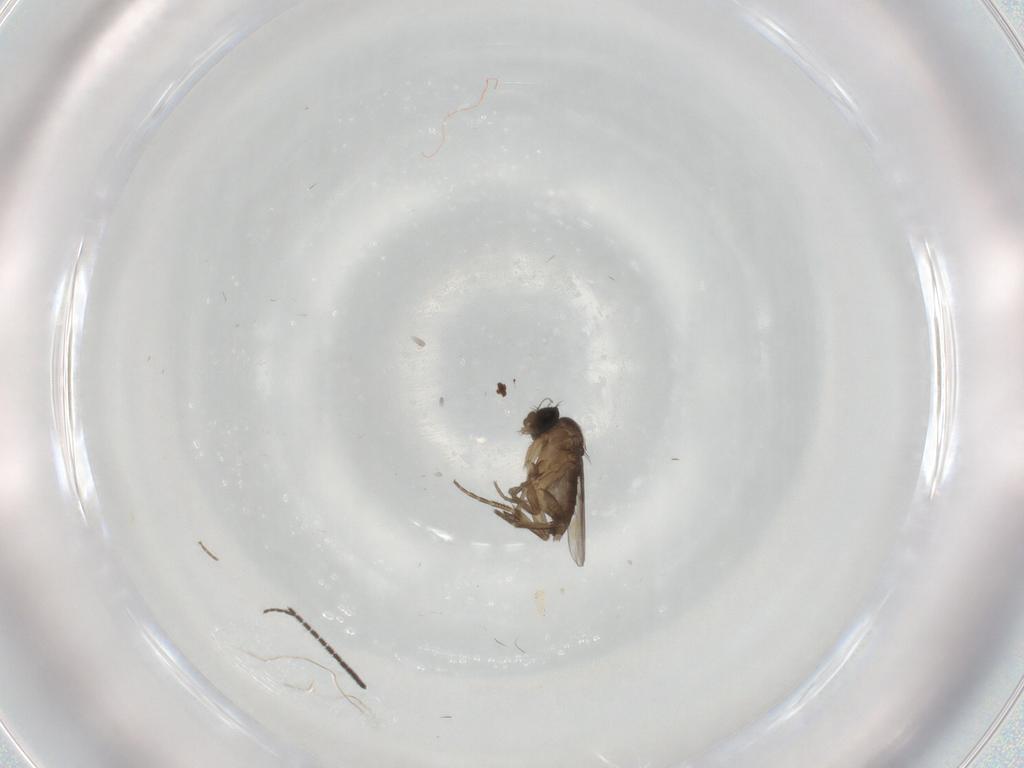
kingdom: Animalia
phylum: Arthropoda
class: Insecta
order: Diptera
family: Phoridae
